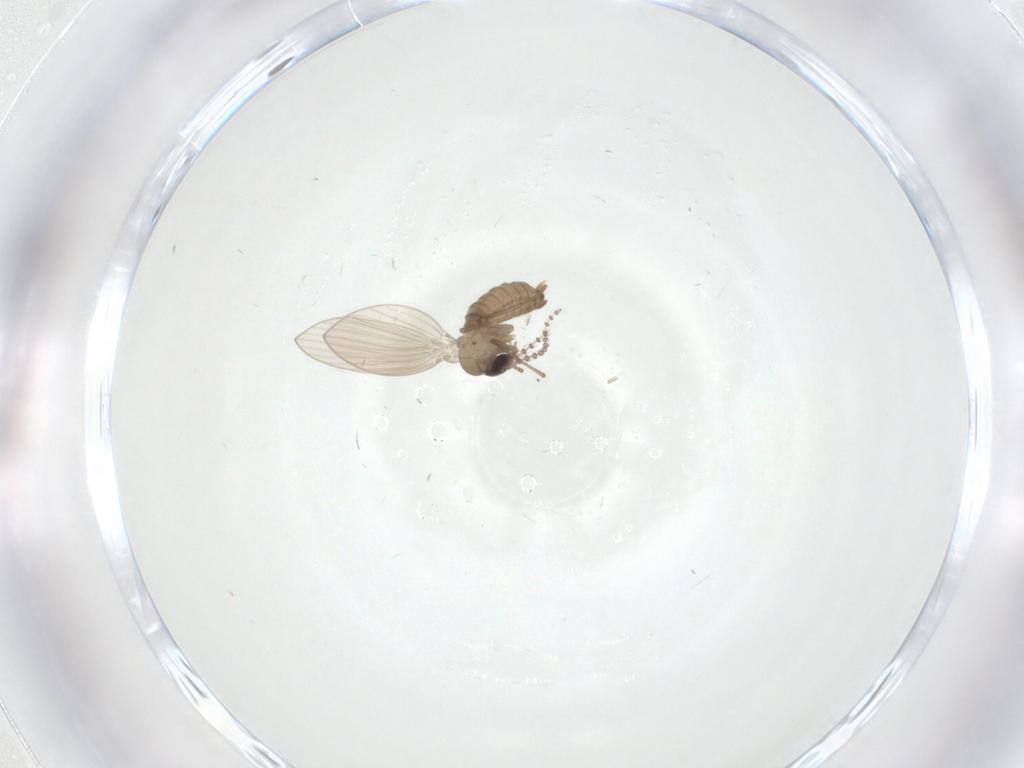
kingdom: Animalia
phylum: Arthropoda
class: Insecta
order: Diptera
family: Psychodidae
